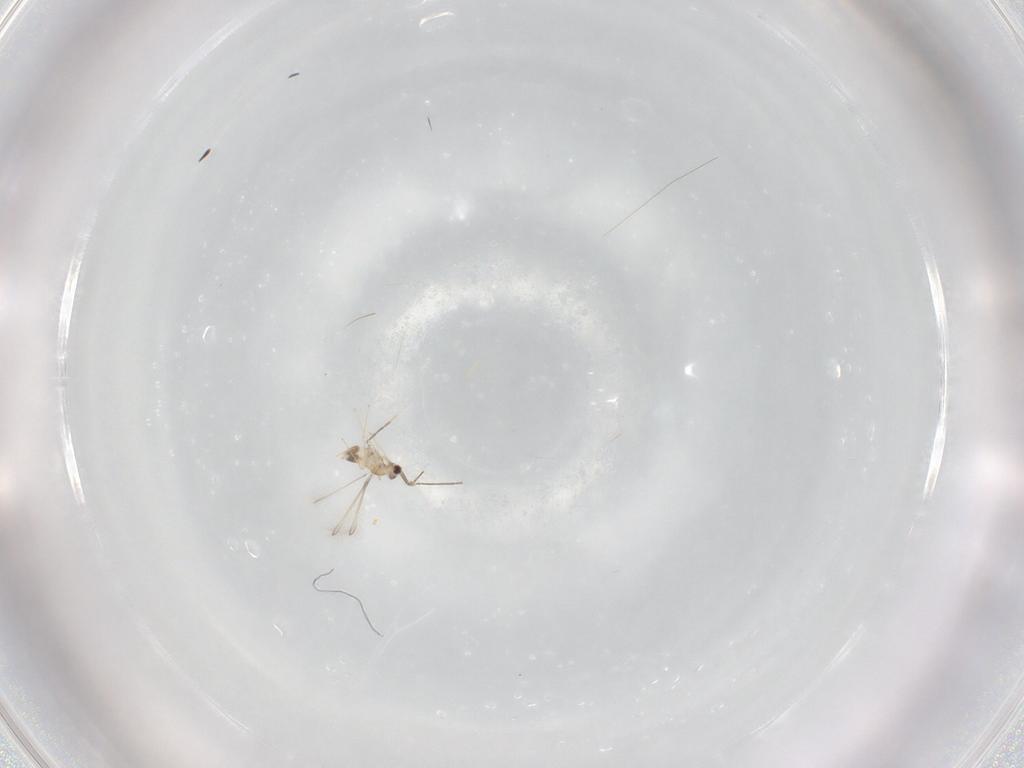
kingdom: Animalia
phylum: Arthropoda
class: Insecta
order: Hymenoptera
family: Mymaridae
